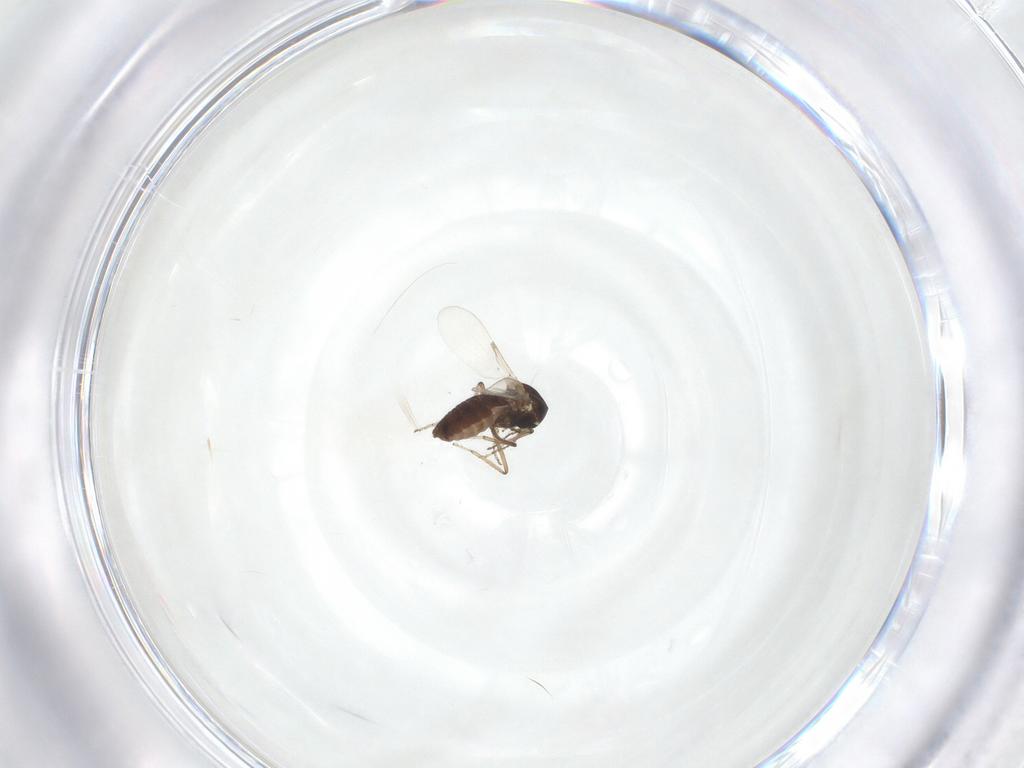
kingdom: Animalia
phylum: Arthropoda
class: Insecta
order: Diptera
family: Ceratopogonidae
